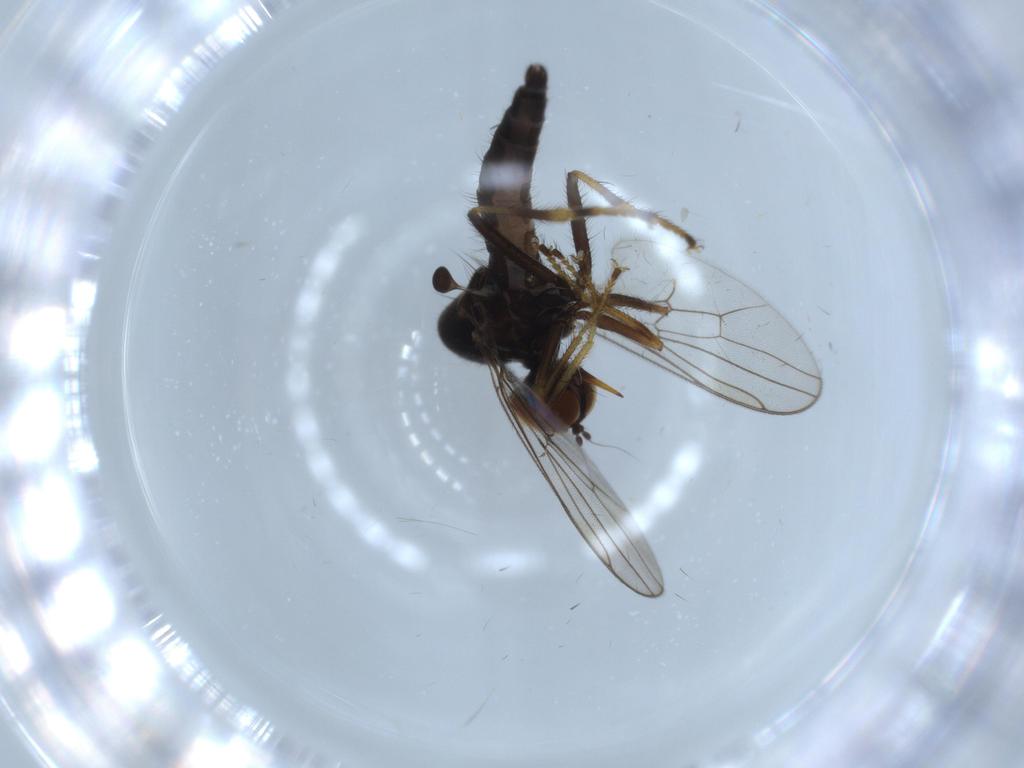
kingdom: Animalia
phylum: Arthropoda
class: Insecta
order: Diptera
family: Hybotidae
